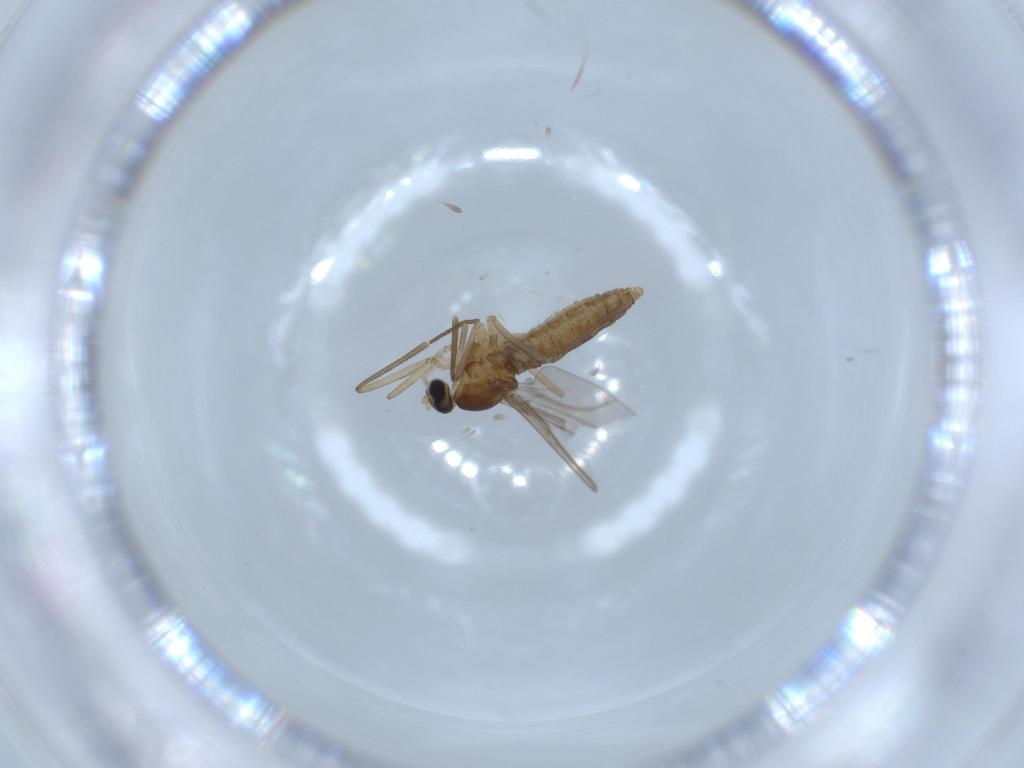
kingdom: Animalia
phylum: Arthropoda
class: Insecta
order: Diptera
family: Cecidomyiidae
